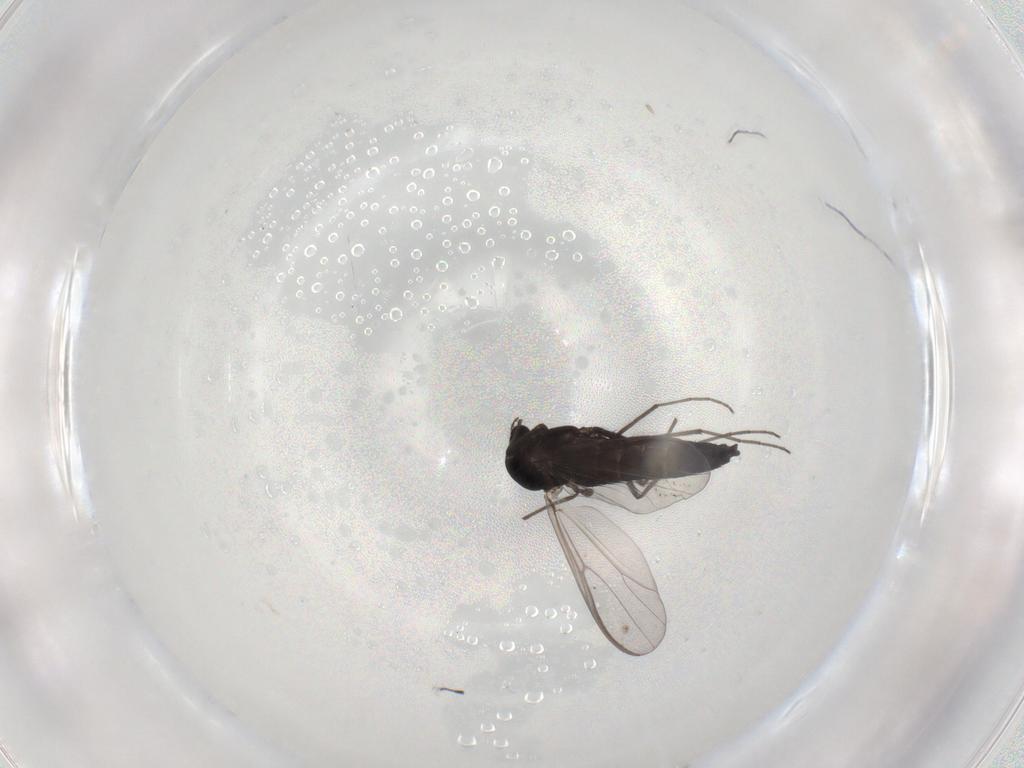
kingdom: Animalia
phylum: Arthropoda
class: Insecta
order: Diptera
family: Chironomidae
